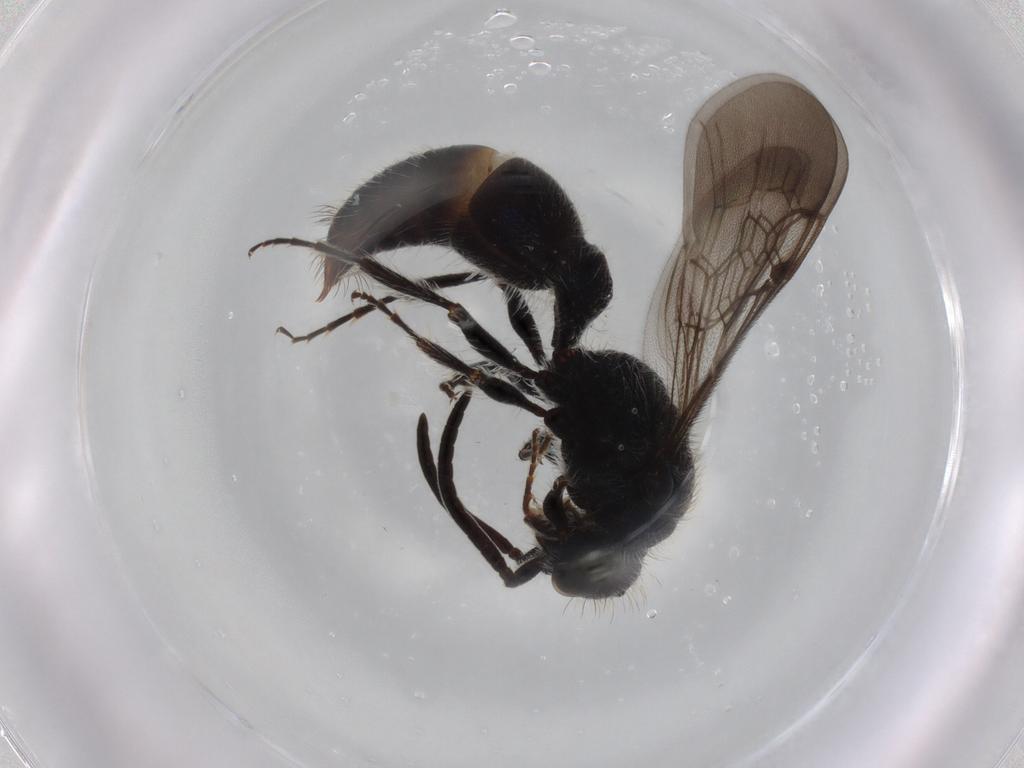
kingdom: Animalia
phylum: Arthropoda
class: Insecta
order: Hymenoptera
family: Mutillidae
